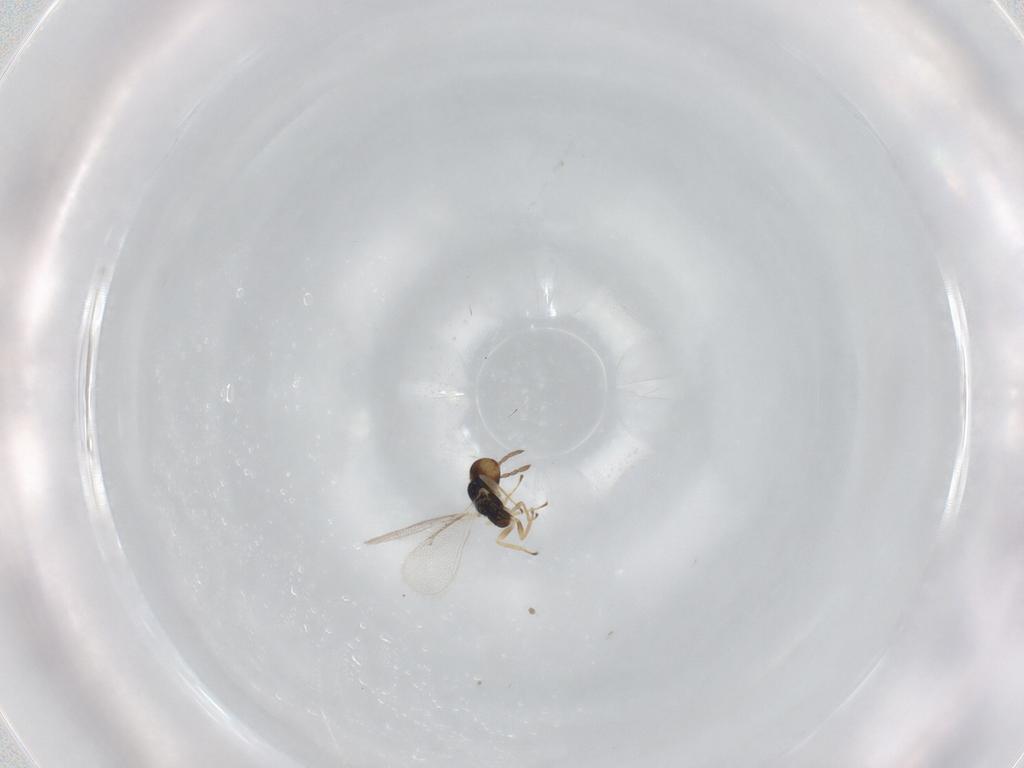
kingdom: Animalia
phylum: Arthropoda
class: Insecta
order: Hymenoptera
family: Eulophidae
